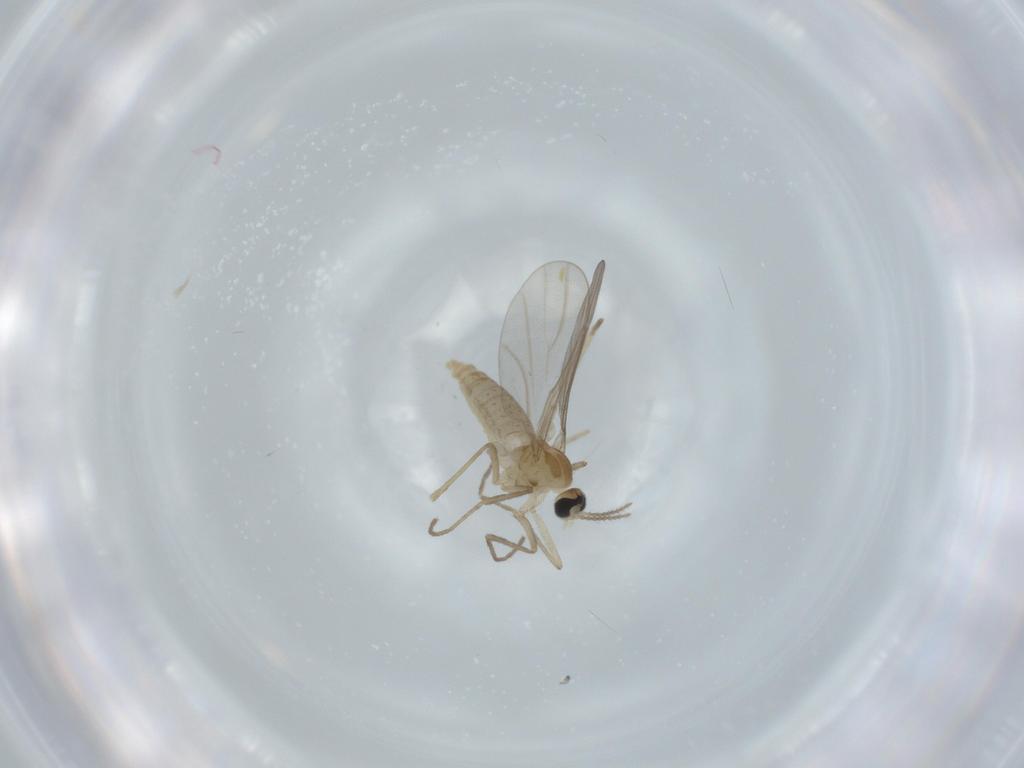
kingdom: Animalia
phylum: Arthropoda
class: Insecta
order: Diptera
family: Cecidomyiidae
